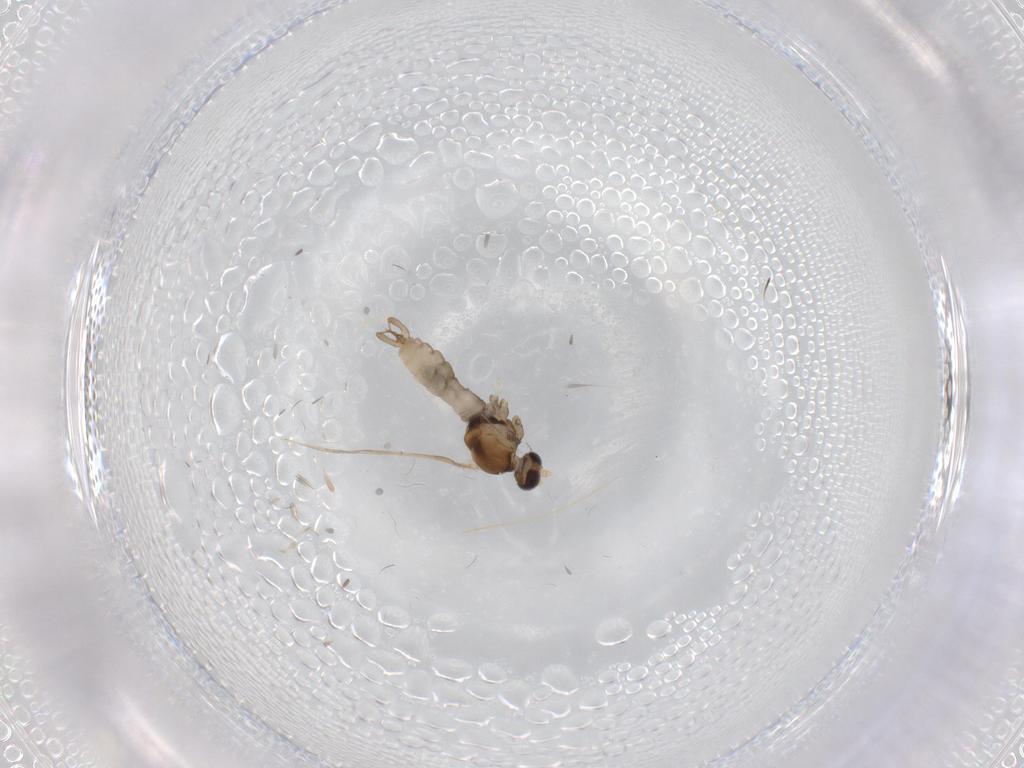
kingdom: Animalia
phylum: Arthropoda
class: Insecta
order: Diptera
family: Cecidomyiidae
